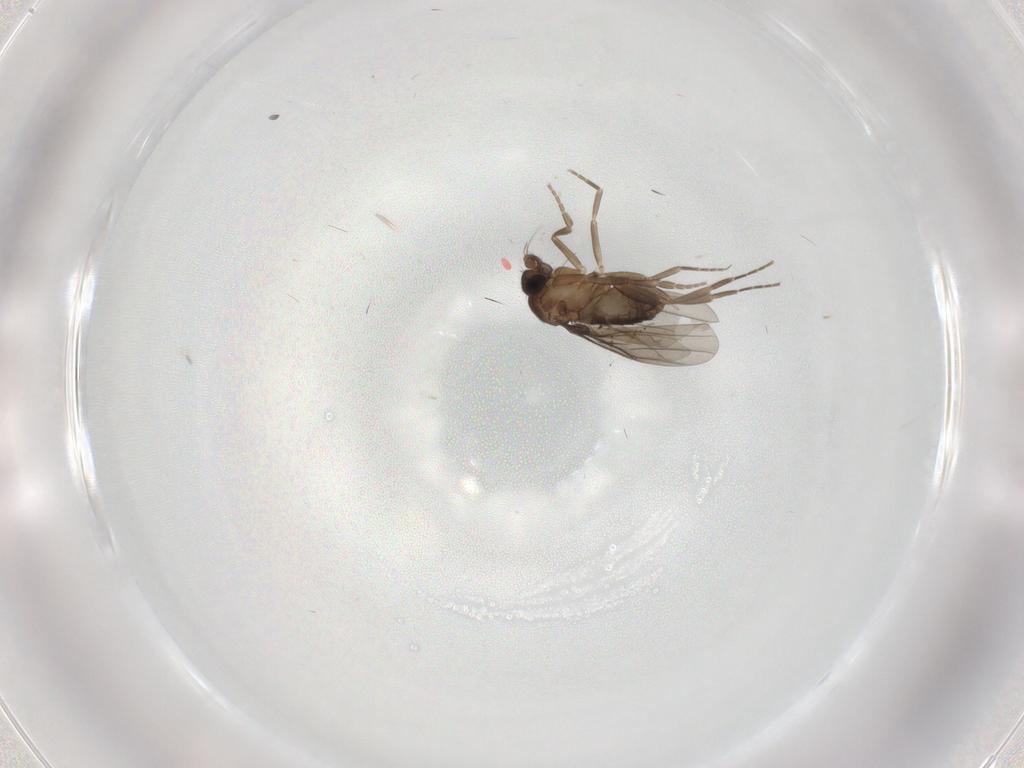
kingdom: Animalia
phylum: Arthropoda
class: Insecta
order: Diptera
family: Cecidomyiidae
